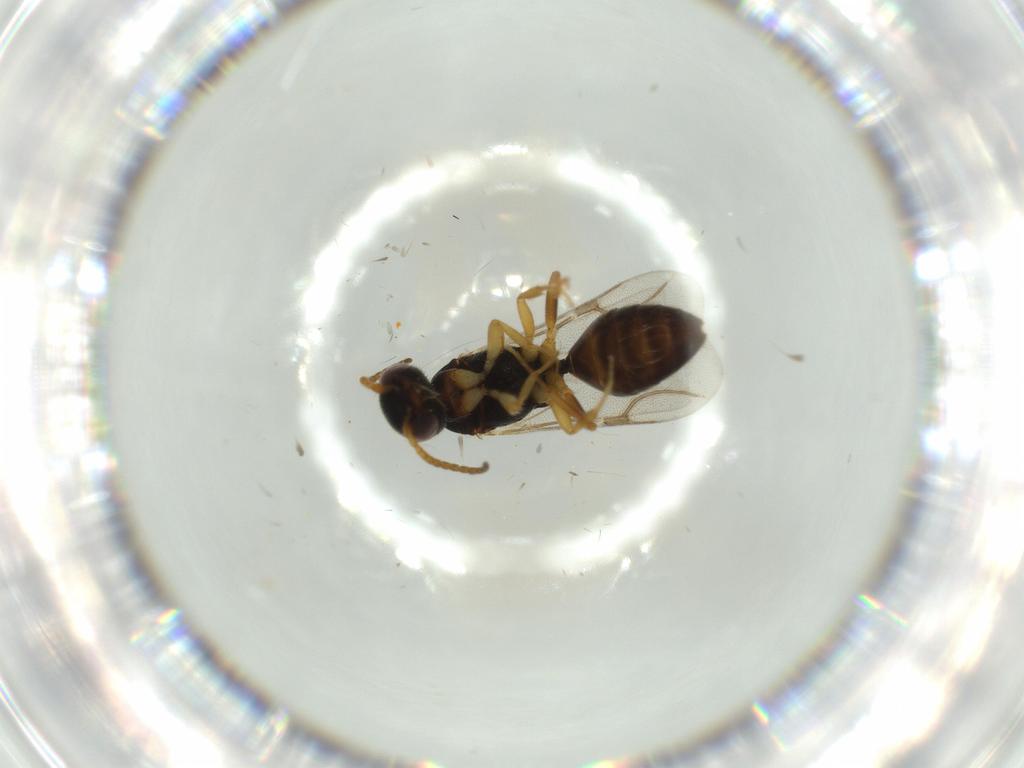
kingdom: Animalia
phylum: Arthropoda
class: Insecta
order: Hymenoptera
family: Bethylidae
